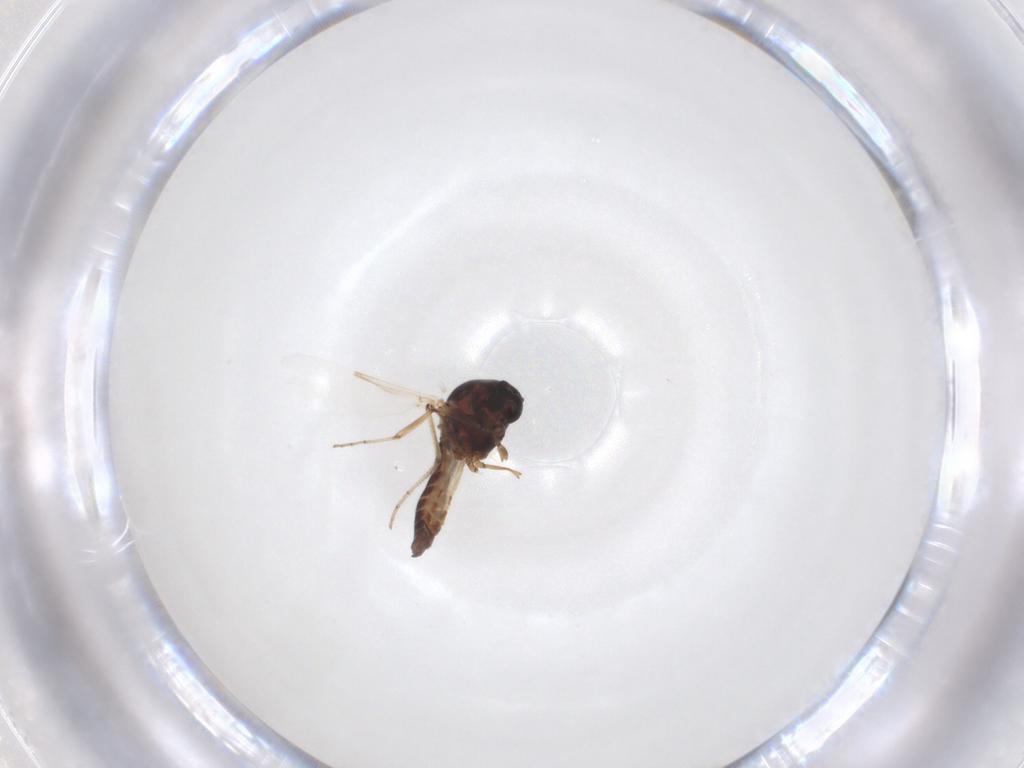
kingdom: Animalia
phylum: Arthropoda
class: Insecta
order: Diptera
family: Ceratopogonidae
